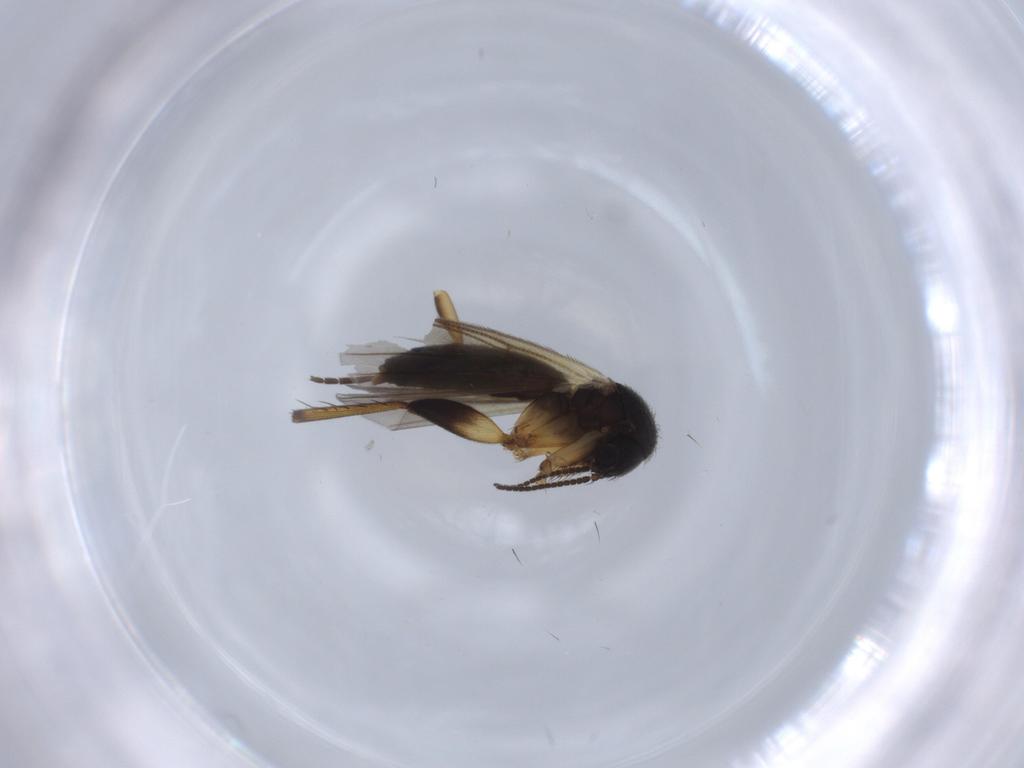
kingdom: Animalia
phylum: Arthropoda
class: Insecta
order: Diptera
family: Mycetophilidae
